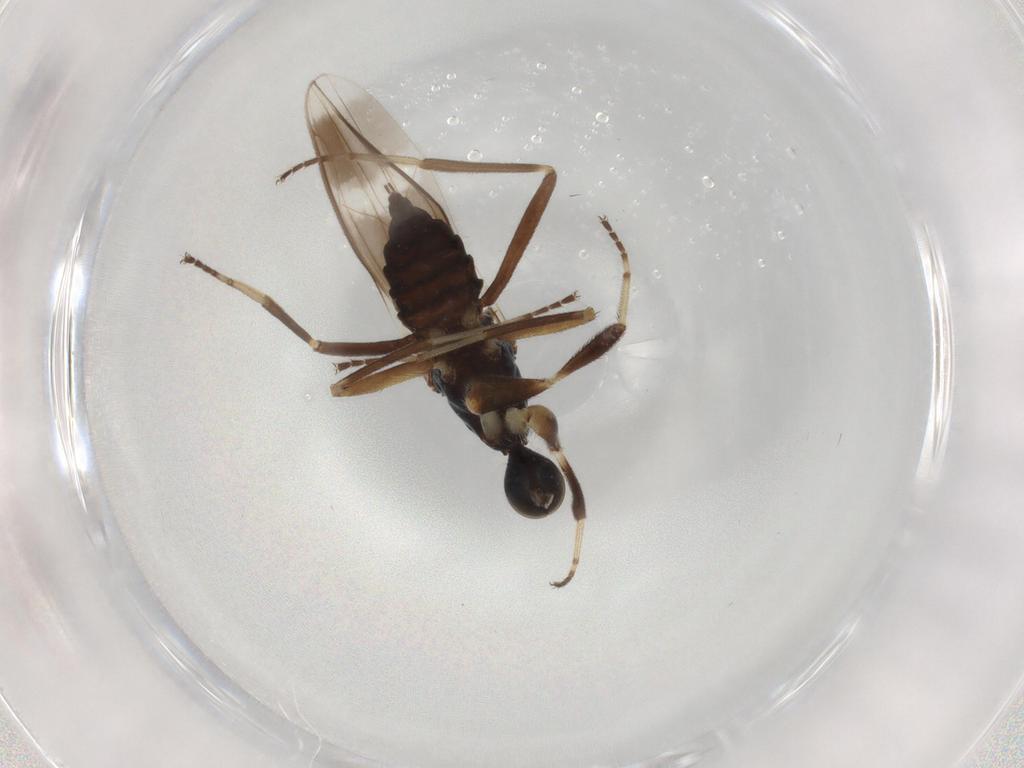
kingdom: Animalia
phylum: Arthropoda
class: Insecta
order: Diptera
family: Hybotidae
